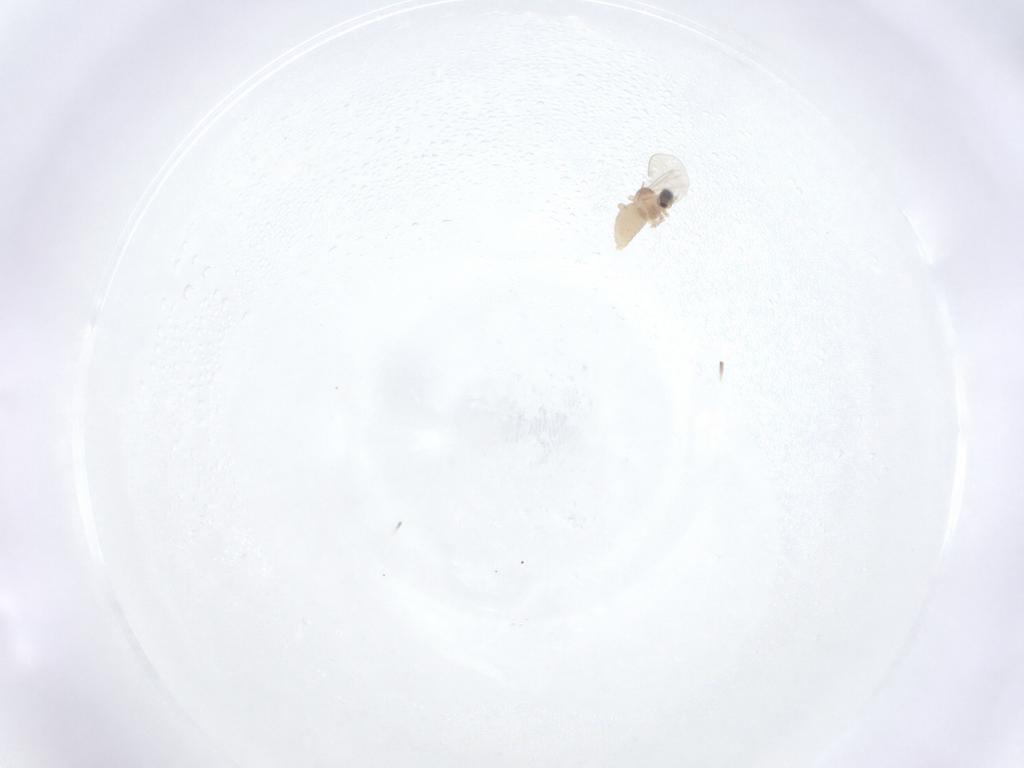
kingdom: Animalia
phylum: Arthropoda
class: Insecta
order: Diptera
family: Cecidomyiidae
